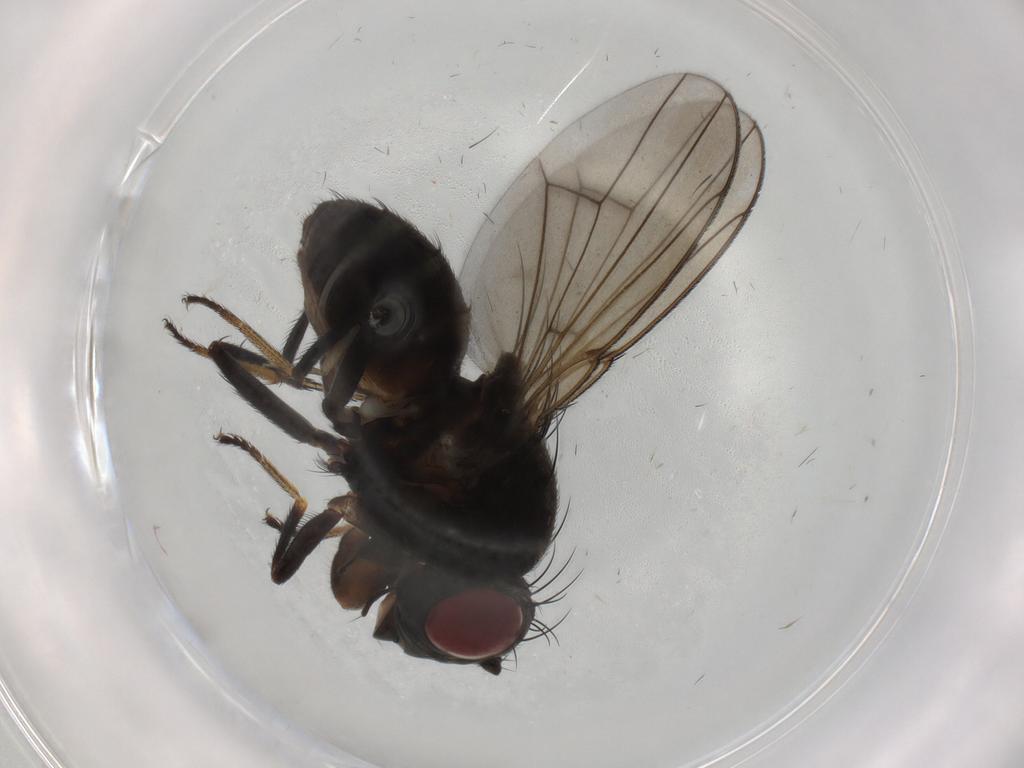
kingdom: Animalia
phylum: Arthropoda
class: Insecta
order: Diptera
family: Ephydridae
